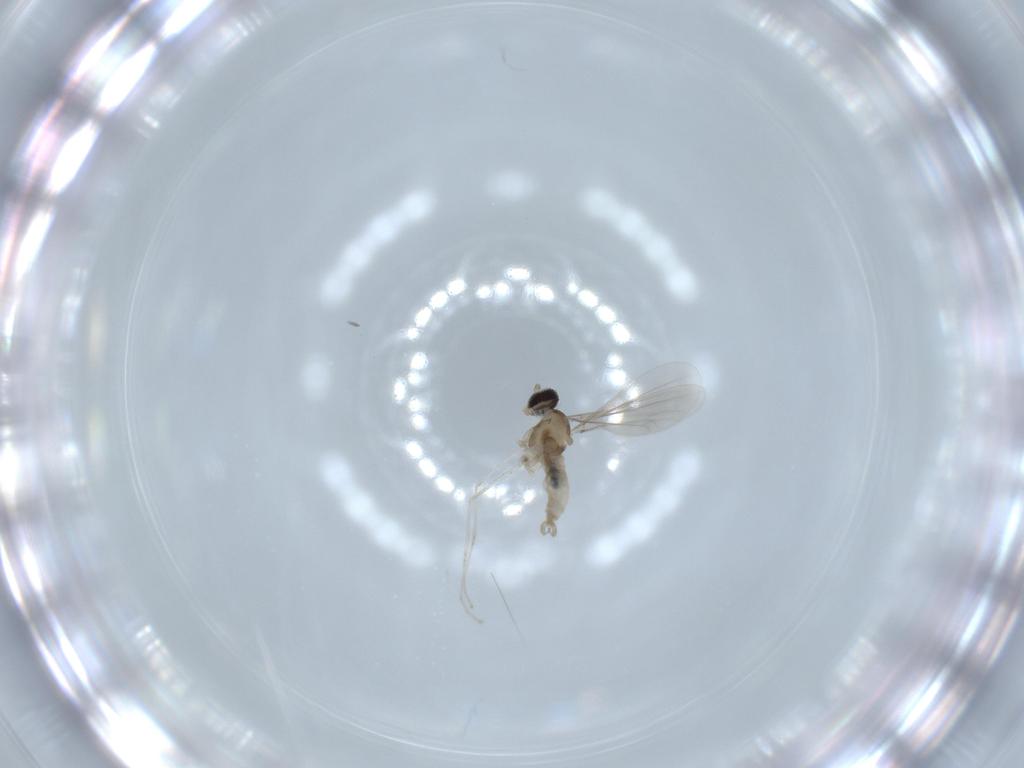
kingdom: Animalia
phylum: Arthropoda
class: Insecta
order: Diptera
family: Cecidomyiidae
